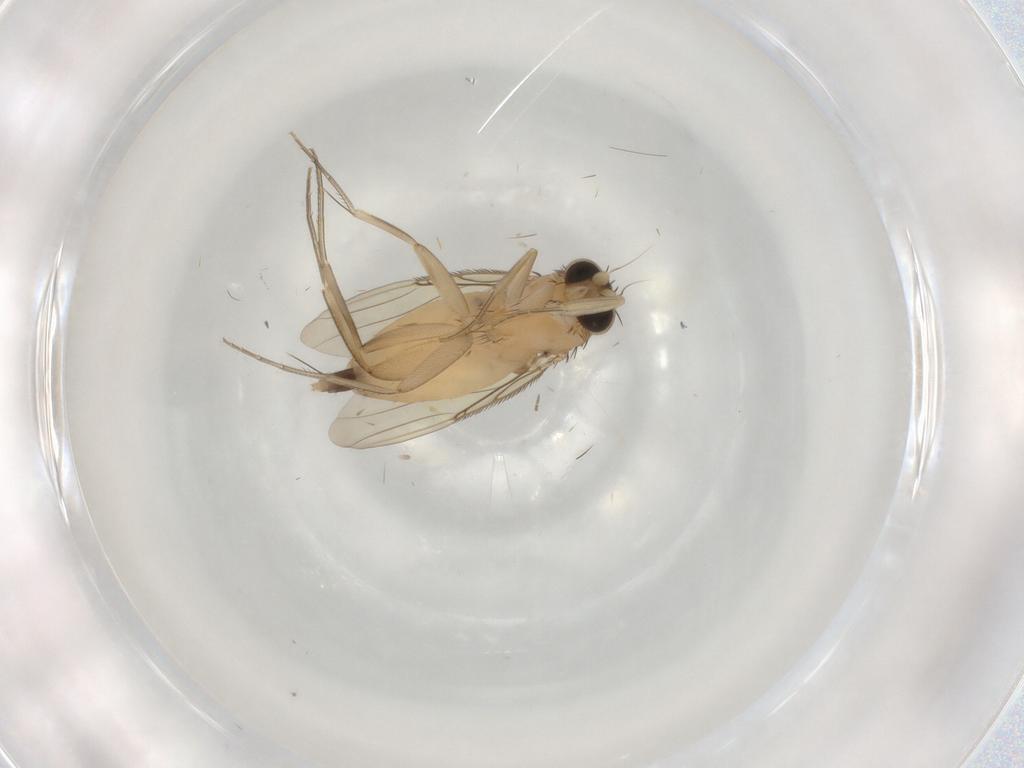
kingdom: Animalia
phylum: Arthropoda
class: Insecta
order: Diptera
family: Phoridae
